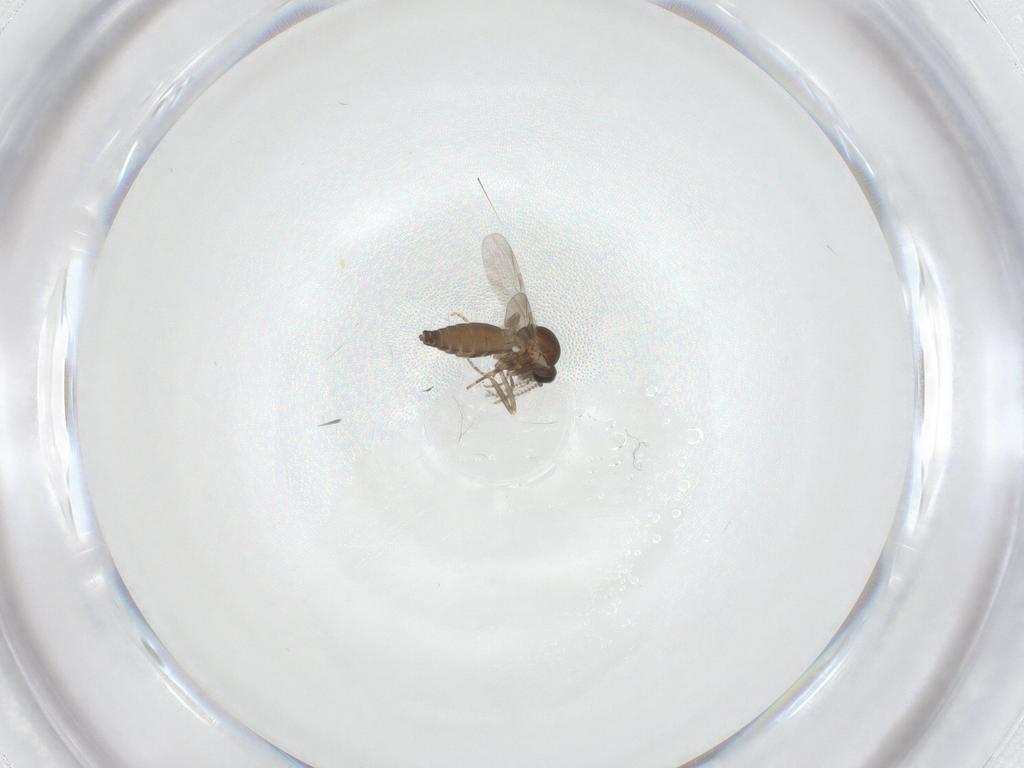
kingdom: Animalia
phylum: Arthropoda
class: Insecta
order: Diptera
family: Ceratopogonidae
